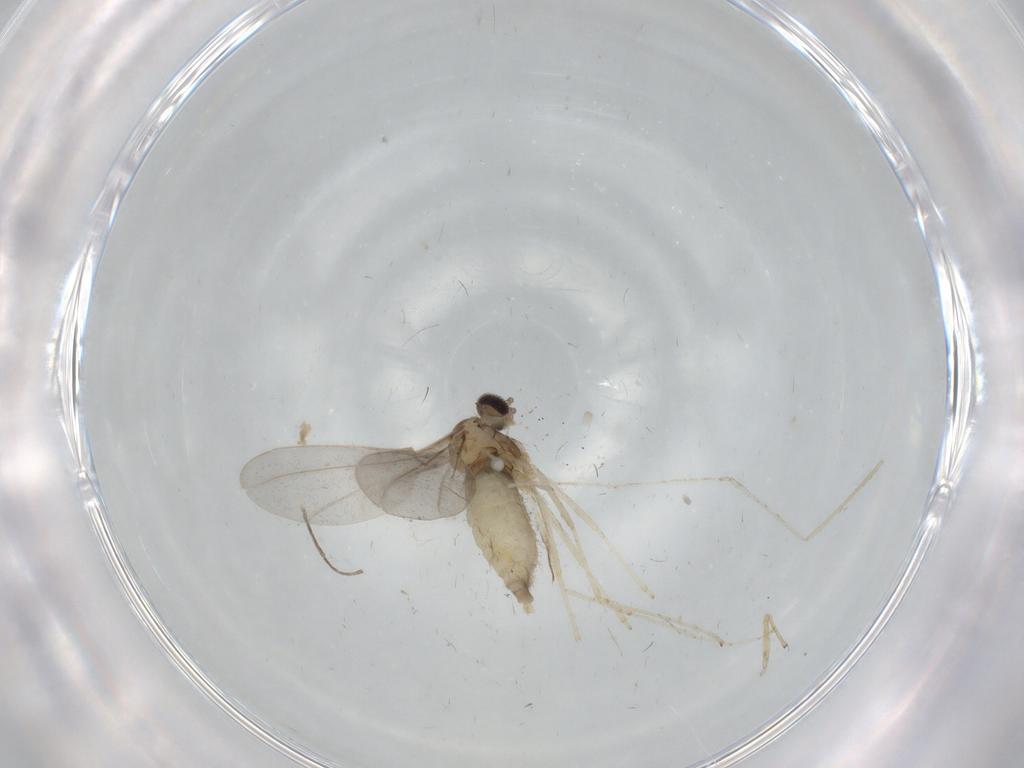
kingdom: Animalia
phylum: Arthropoda
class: Insecta
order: Diptera
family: Cecidomyiidae
